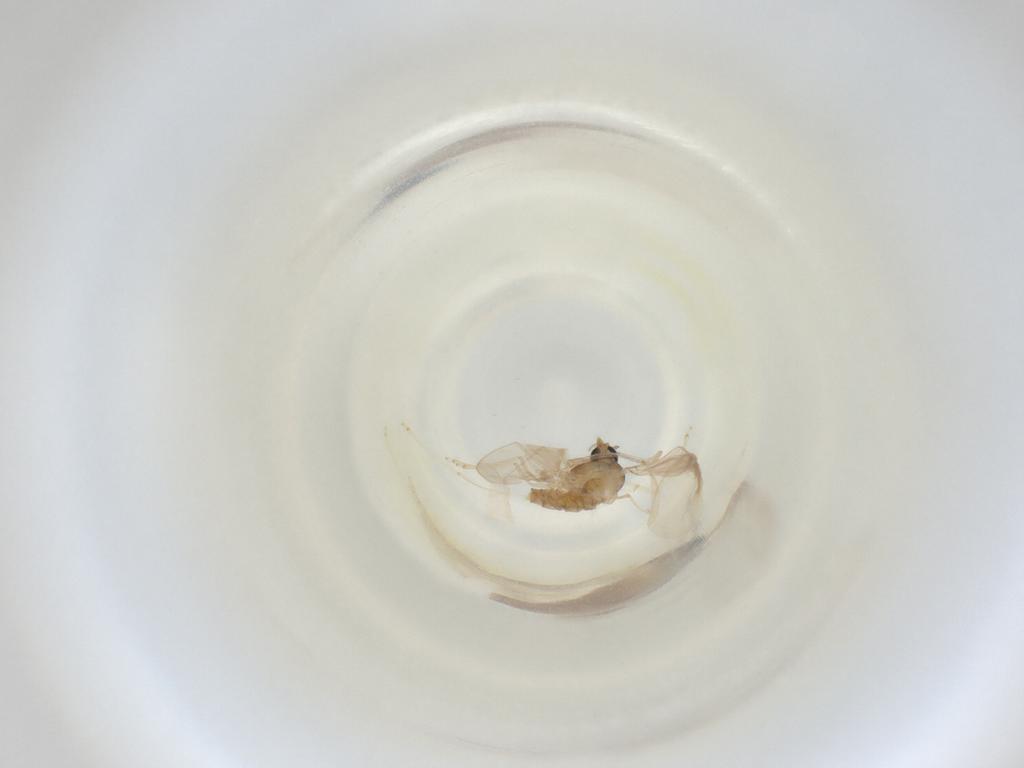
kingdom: Animalia
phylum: Arthropoda
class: Insecta
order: Diptera
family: Cecidomyiidae
